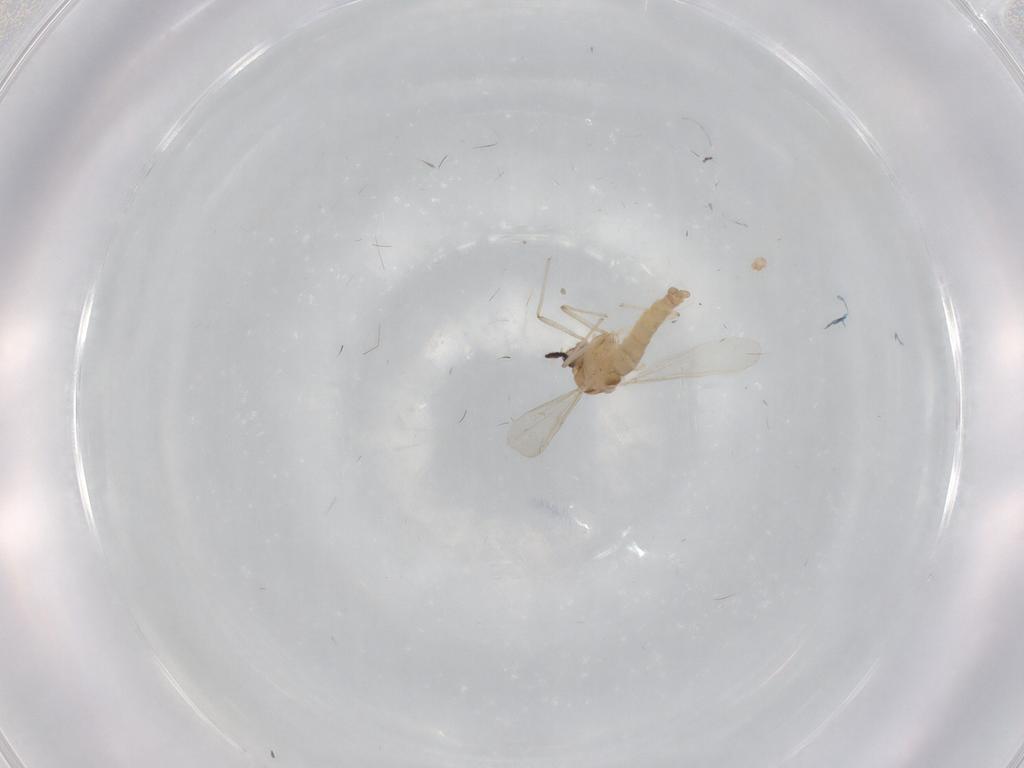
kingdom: Animalia
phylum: Arthropoda
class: Insecta
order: Diptera
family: Chironomidae
